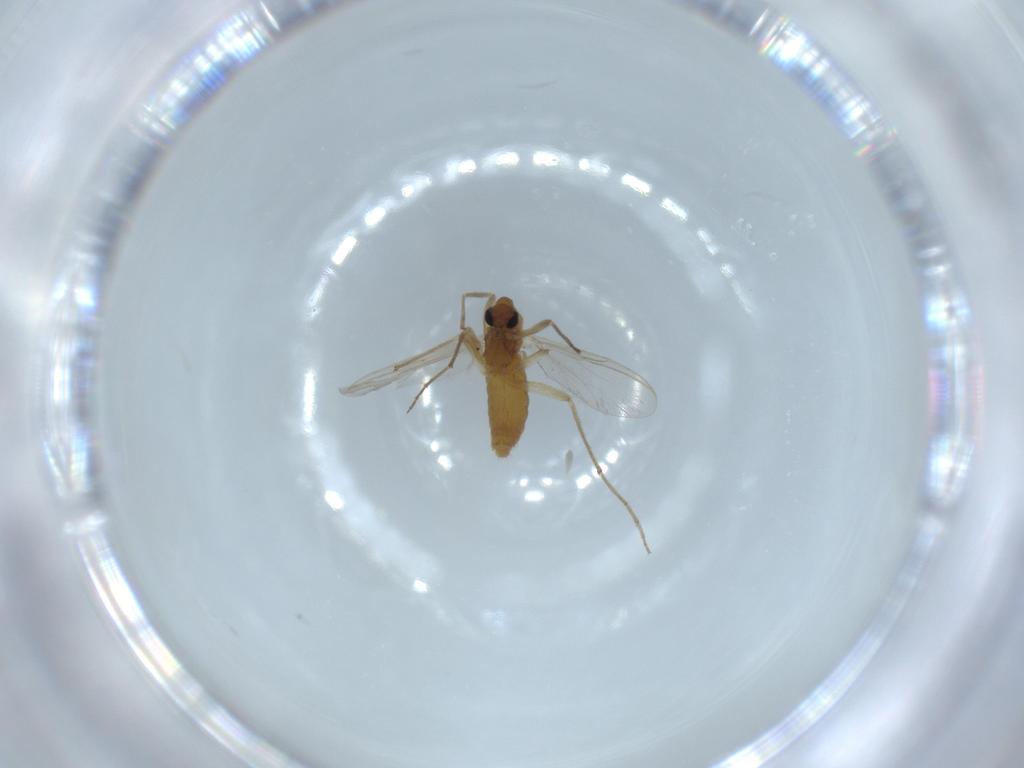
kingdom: Animalia
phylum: Arthropoda
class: Insecta
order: Diptera
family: Chironomidae
